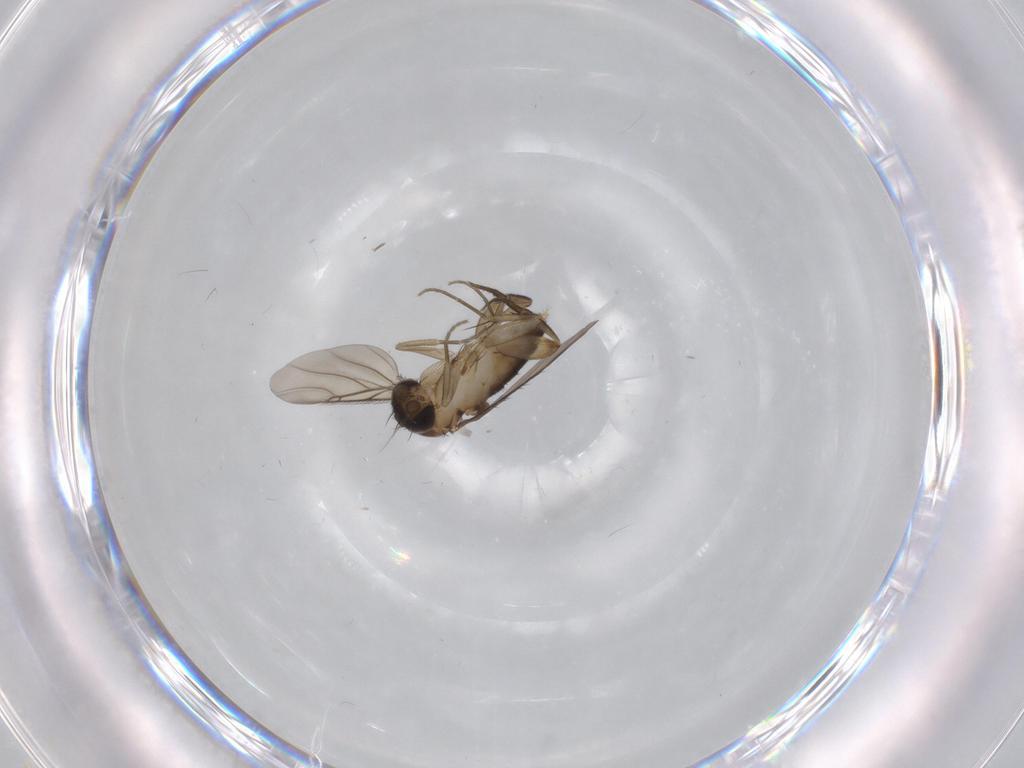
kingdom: Animalia
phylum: Arthropoda
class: Insecta
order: Diptera
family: Phoridae
